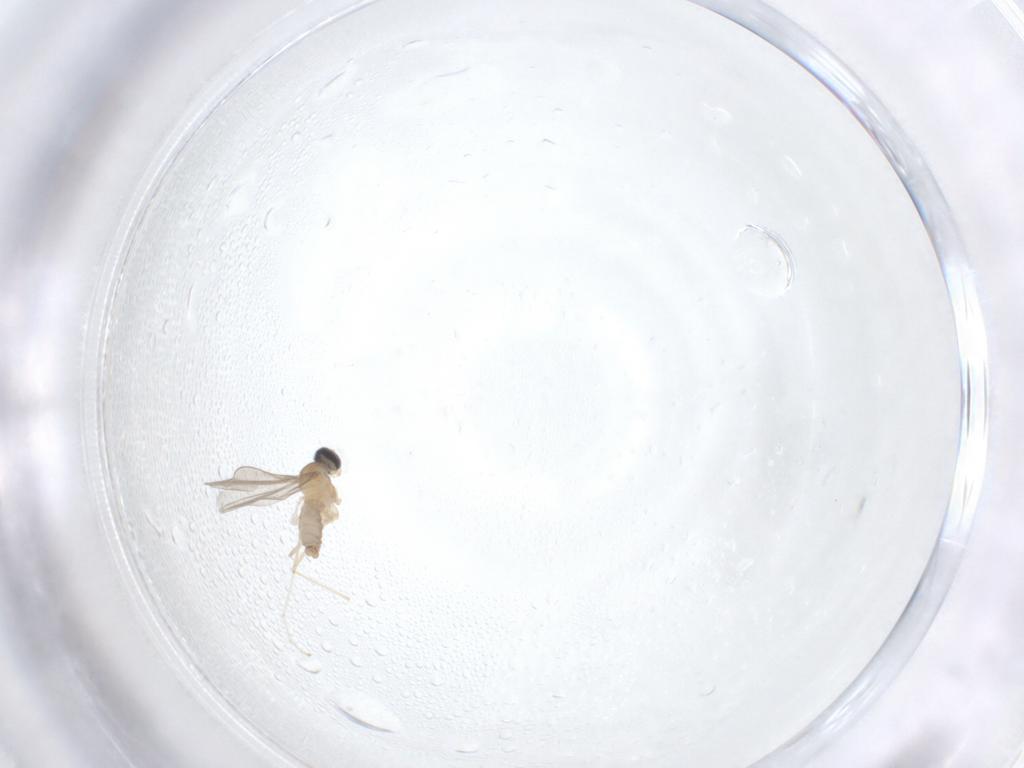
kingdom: Animalia
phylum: Arthropoda
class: Insecta
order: Diptera
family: Cecidomyiidae
